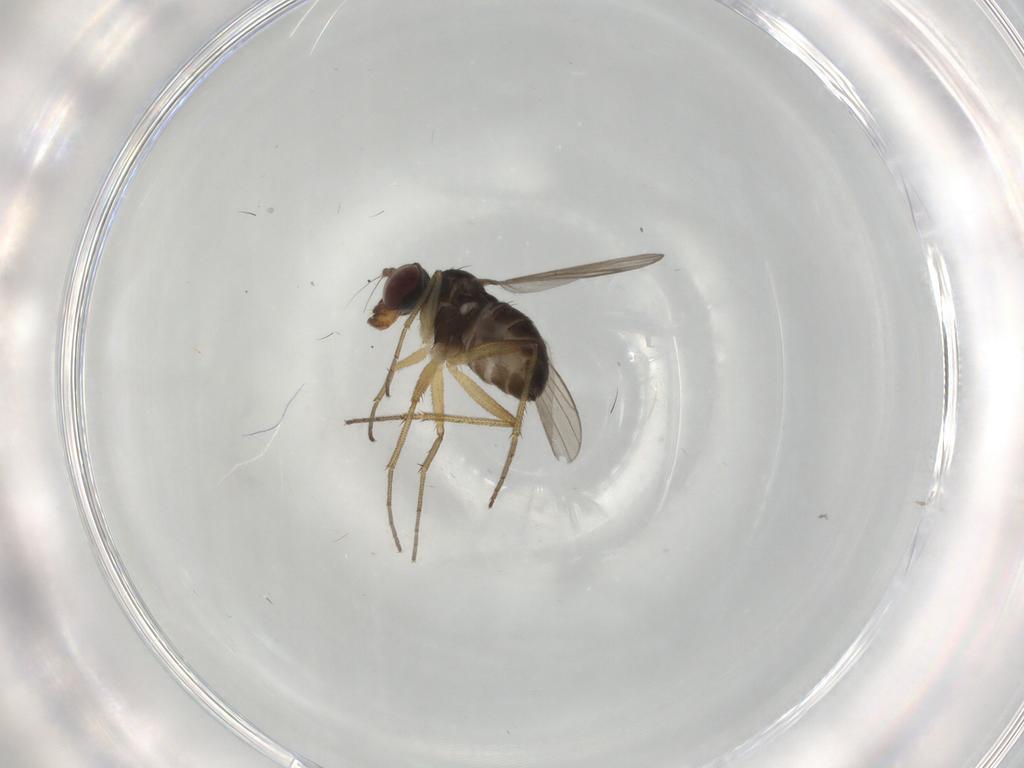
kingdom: Animalia
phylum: Arthropoda
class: Insecta
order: Diptera
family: Dolichopodidae
